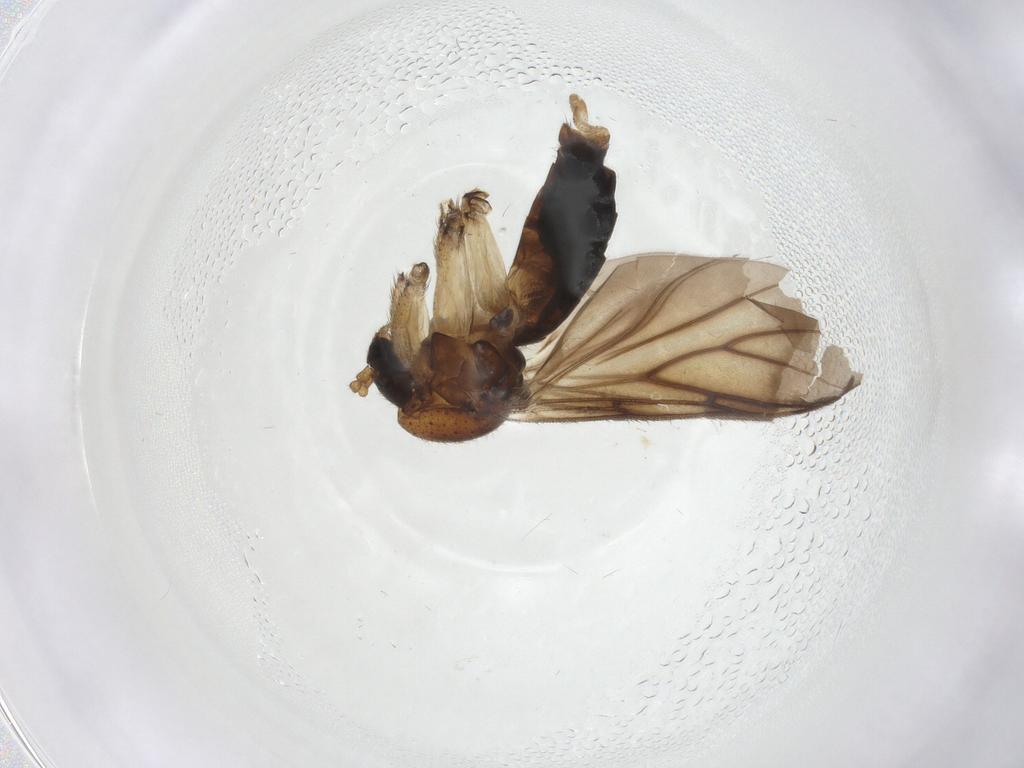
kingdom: Animalia
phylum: Arthropoda
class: Insecta
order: Diptera
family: Mycetophilidae
